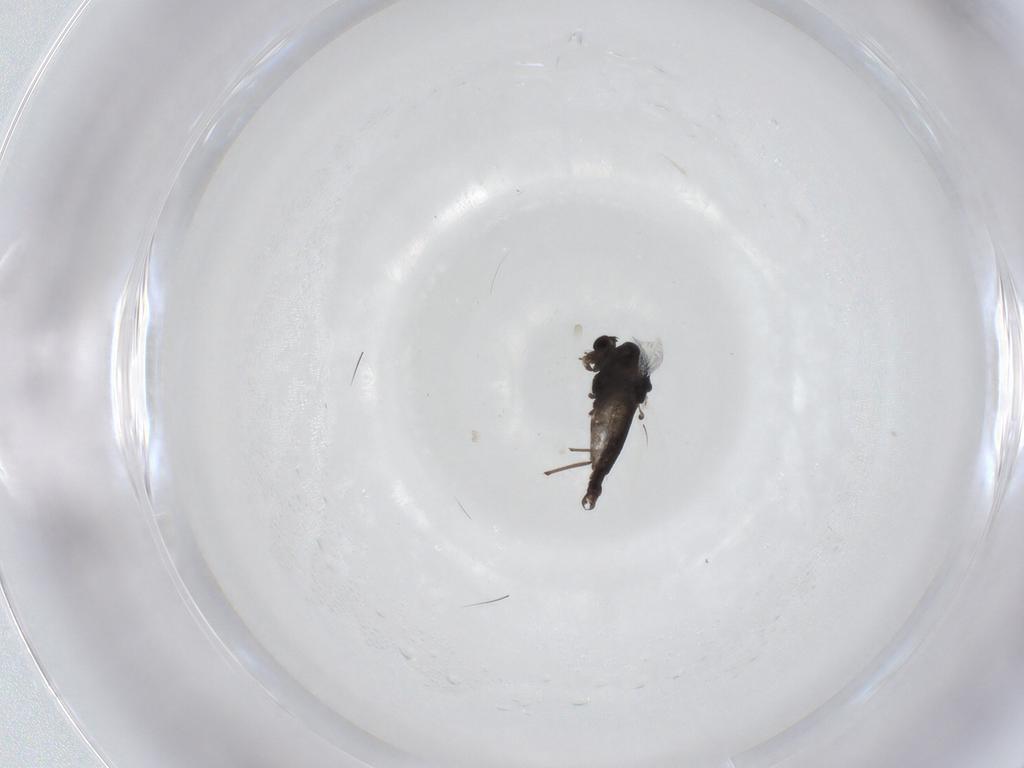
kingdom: Animalia
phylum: Arthropoda
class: Insecta
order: Diptera
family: Chironomidae
